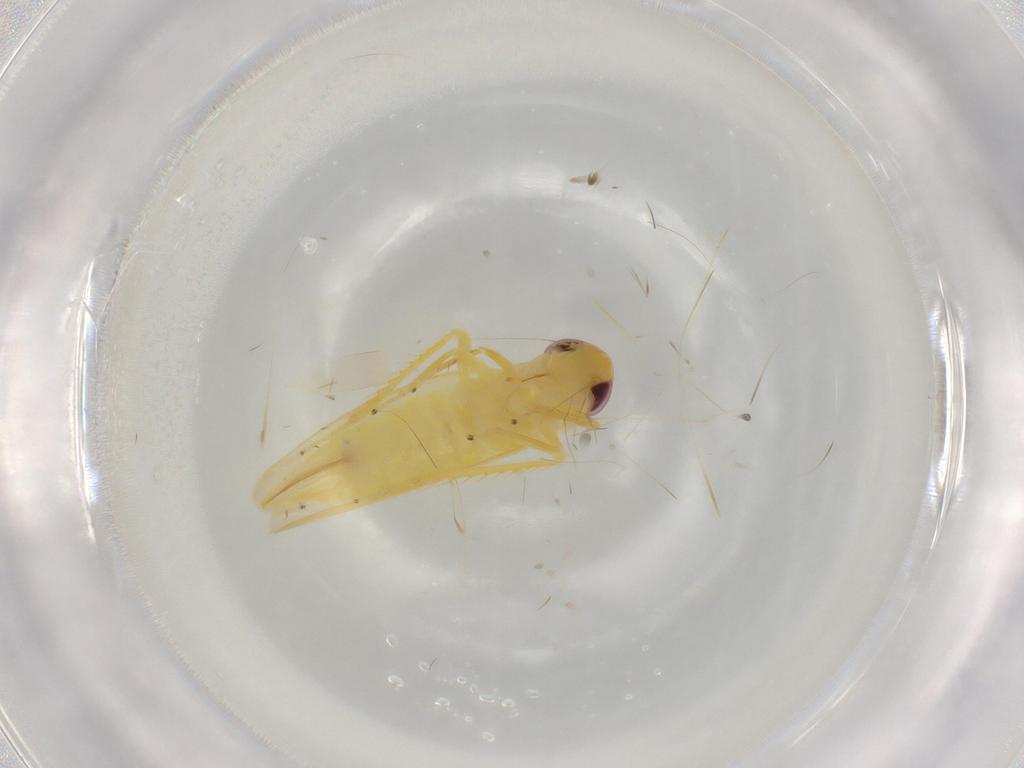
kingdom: Animalia
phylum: Arthropoda
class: Insecta
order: Hemiptera
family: Cicadellidae
